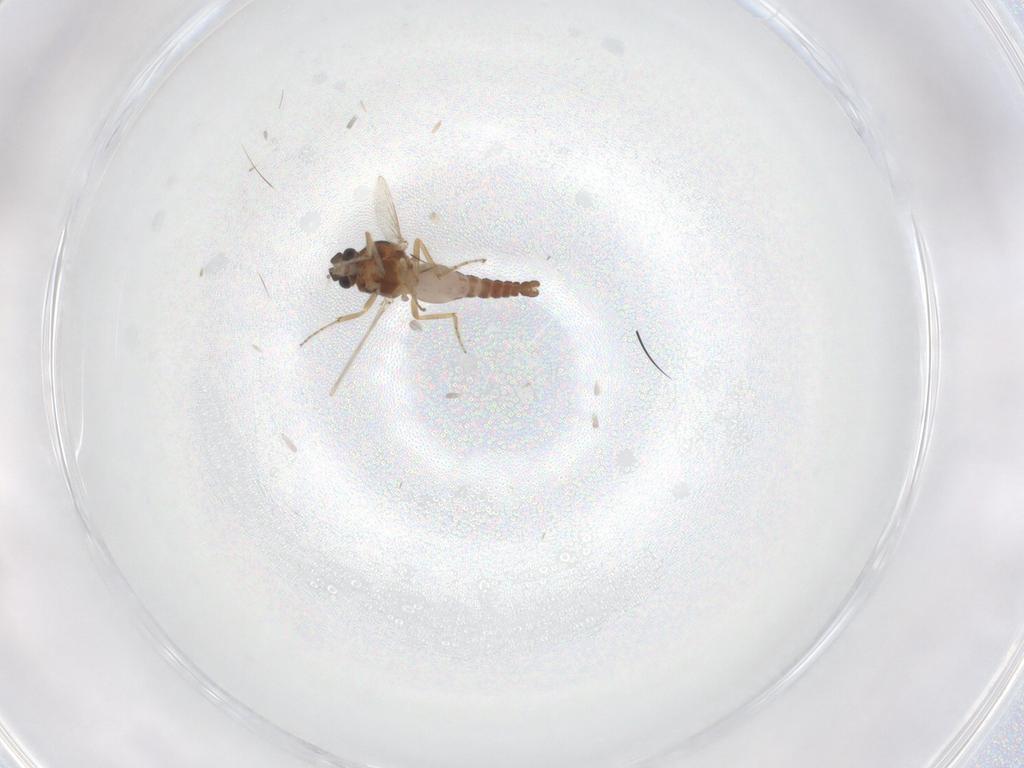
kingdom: Animalia
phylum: Arthropoda
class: Insecta
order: Diptera
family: Ceratopogonidae
